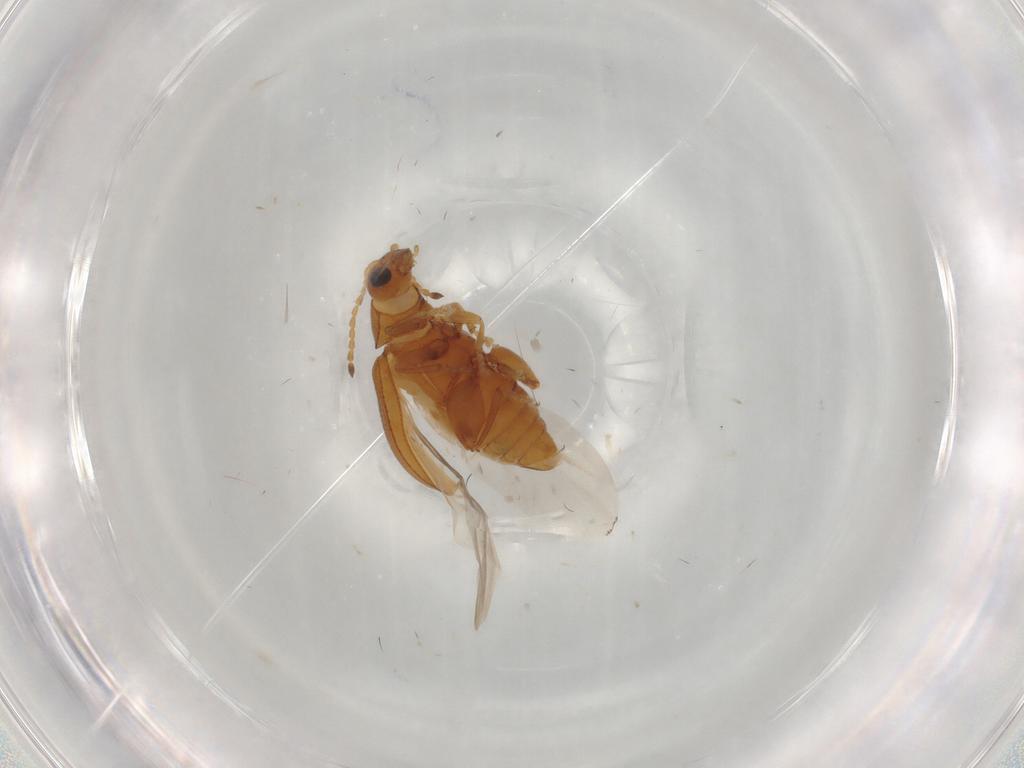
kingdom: Animalia
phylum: Arthropoda
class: Insecta
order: Coleoptera
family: Chrysomelidae
